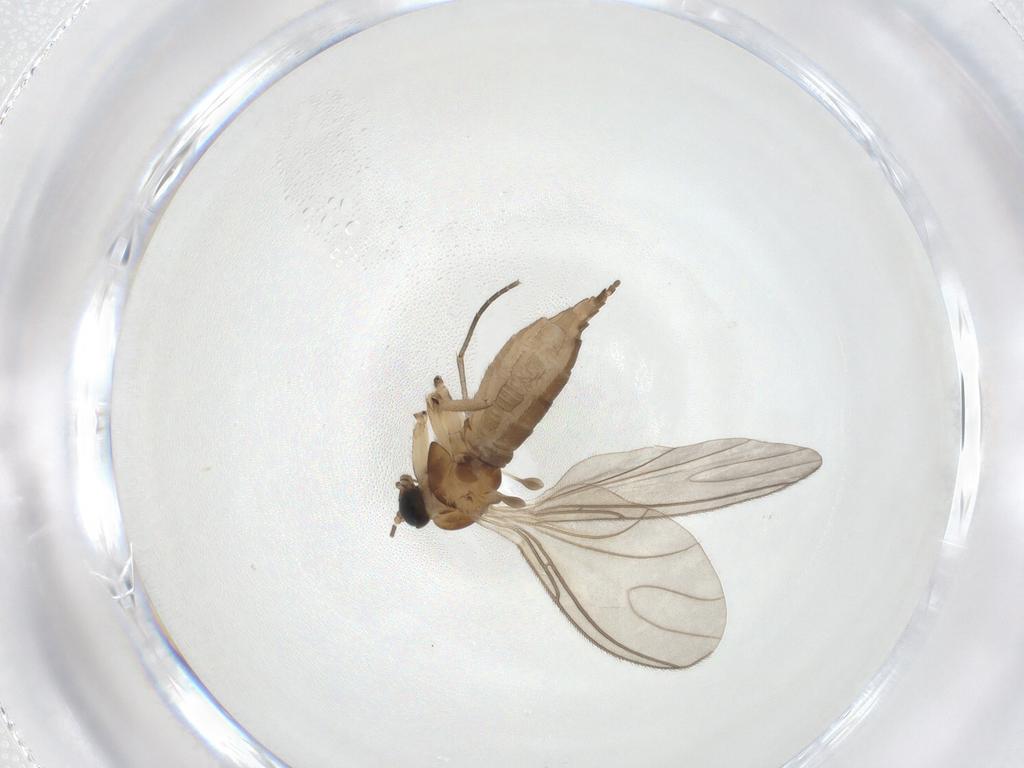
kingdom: Animalia
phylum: Arthropoda
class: Insecta
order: Diptera
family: Sciaridae
